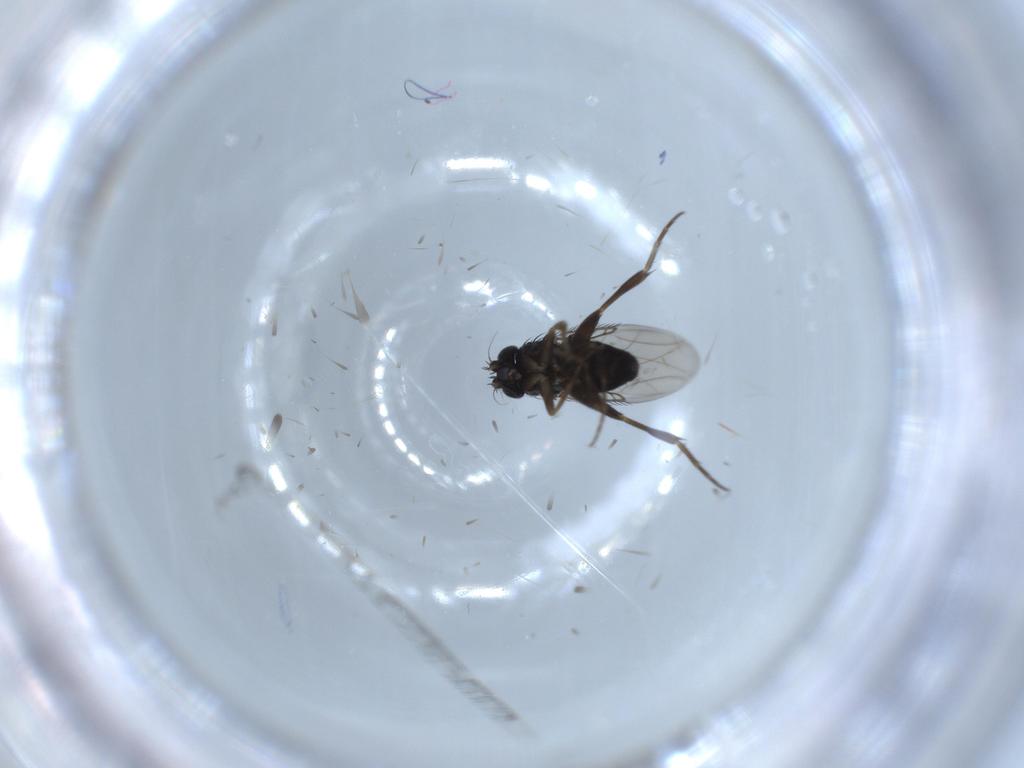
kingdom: Animalia
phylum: Arthropoda
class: Insecta
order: Diptera
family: Phoridae
